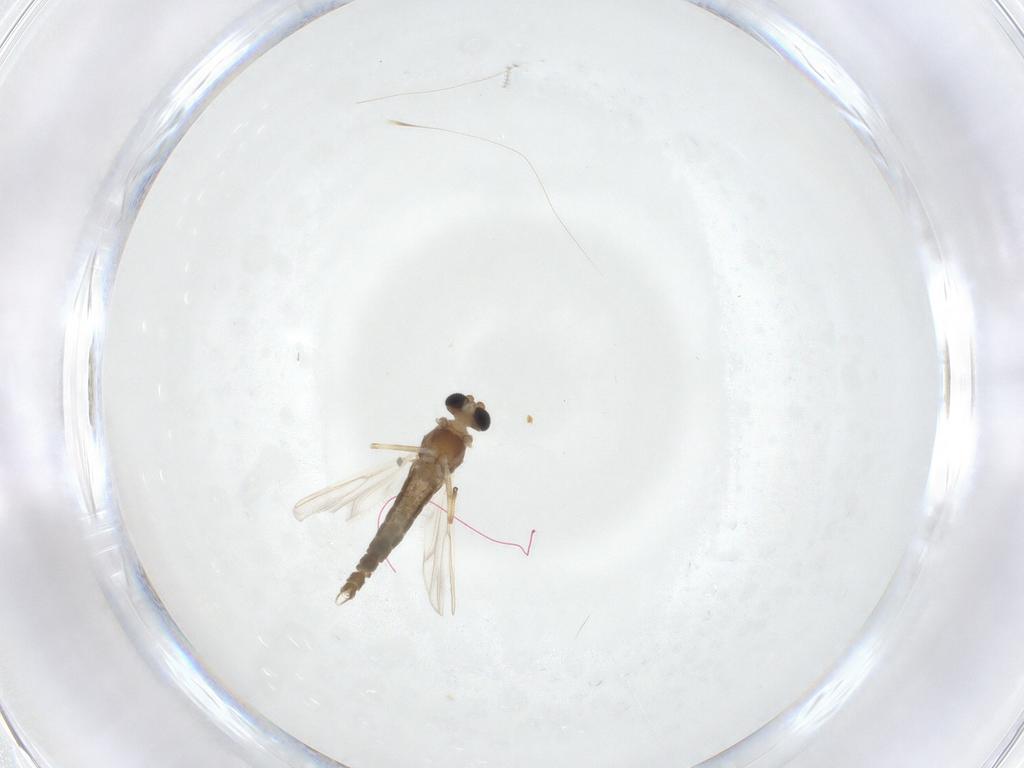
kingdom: Animalia
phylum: Arthropoda
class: Insecta
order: Diptera
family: Chironomidae
